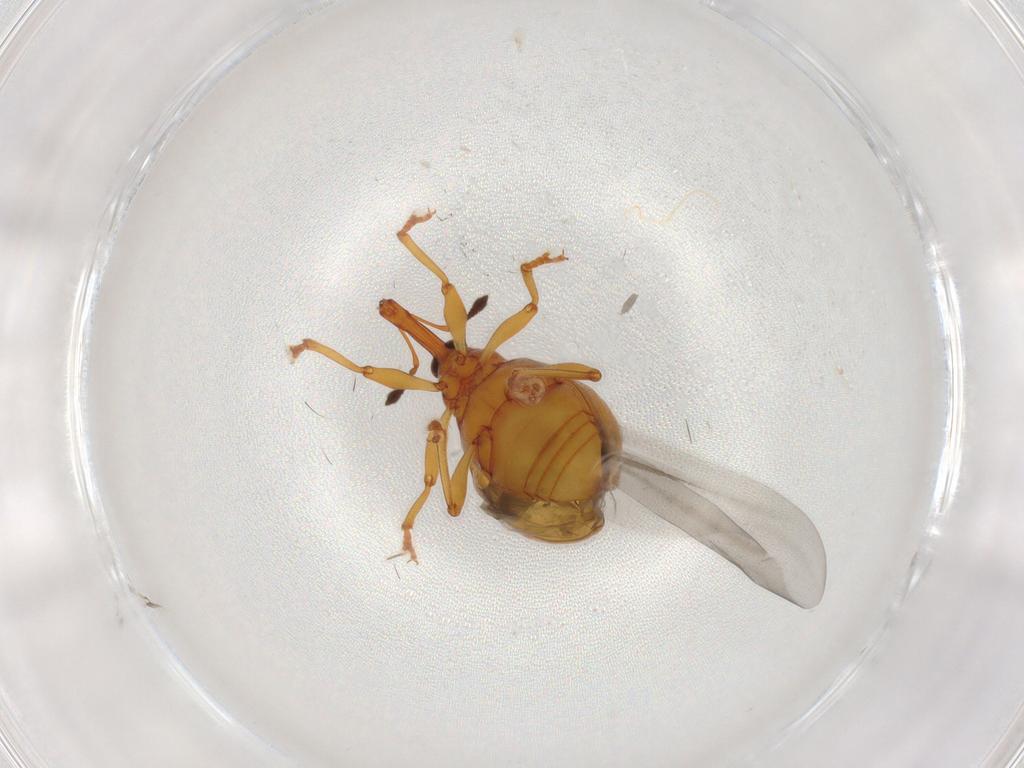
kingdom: Animalia
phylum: Arthropoda
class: Insecta
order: Coleoptera
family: Curculionidae
